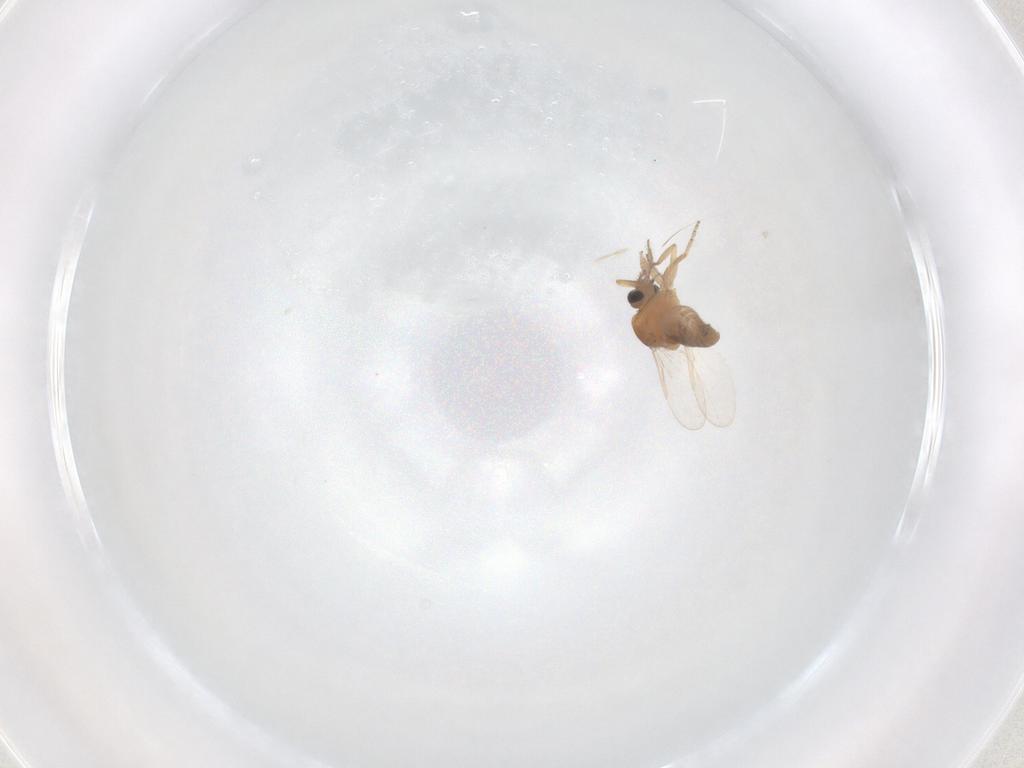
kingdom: Animalia
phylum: Arthropoda
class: Insecta
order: Diptera
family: Ceratopogonidae
